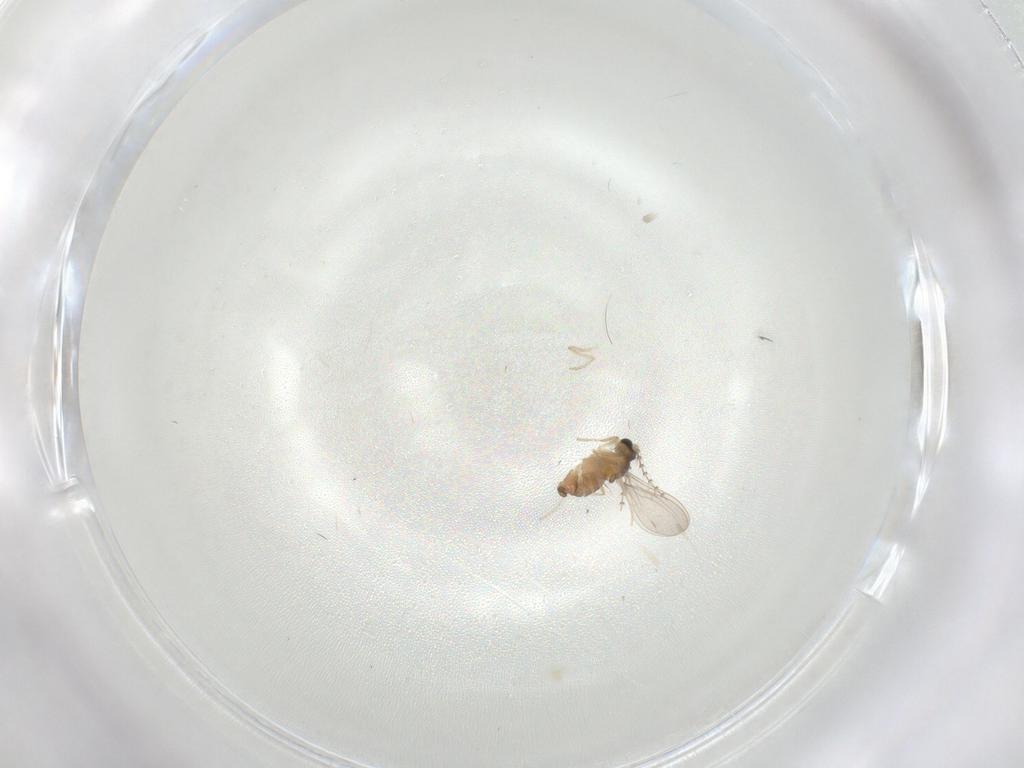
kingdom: Animalia
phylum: Arthropoda
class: Insecta
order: Diptera
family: Cecidomyiidae
